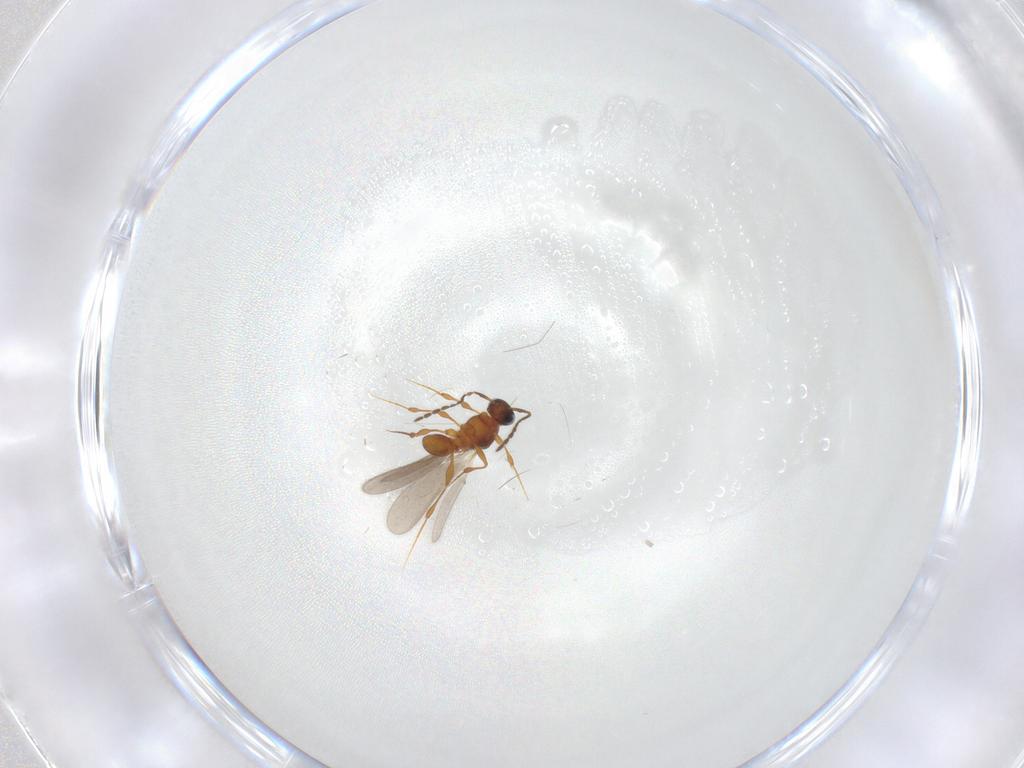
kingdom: Animalia
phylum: Arthropoda
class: Insecta
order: Hymenoptera
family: Platygastridae
